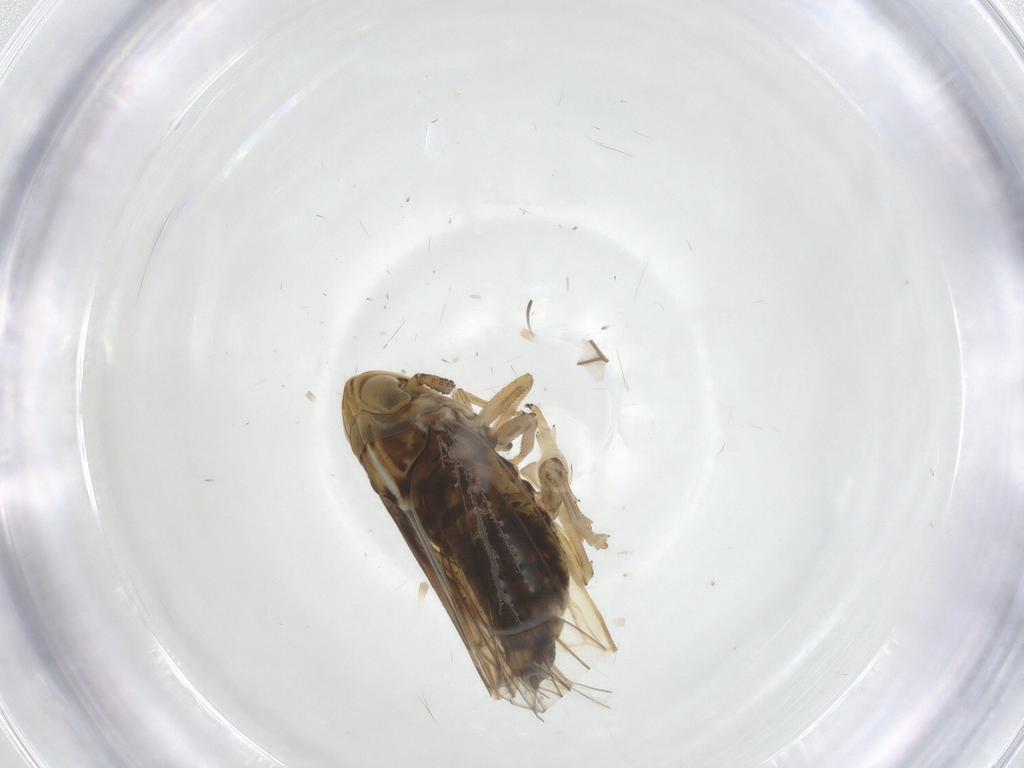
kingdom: Animalia
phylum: Arthropoda
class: Insecta
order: Hemiptera
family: Delphacidae
